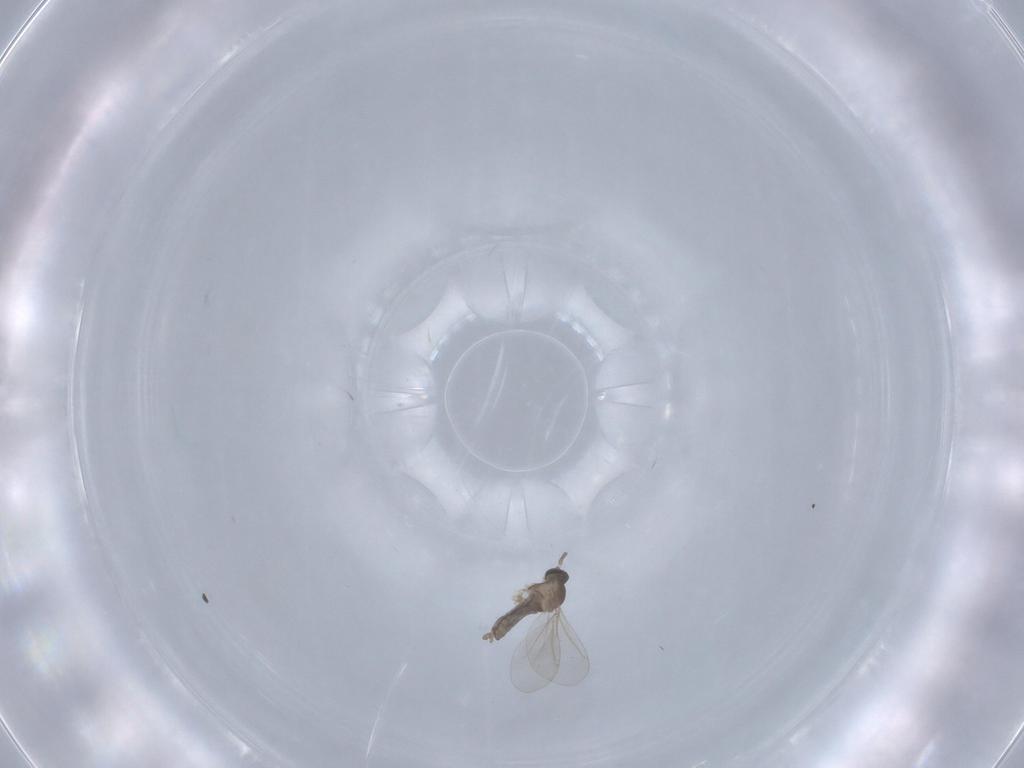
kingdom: Animalia
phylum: Arthropoda
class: Insecta
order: Diptera
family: Cecidomyiidae
